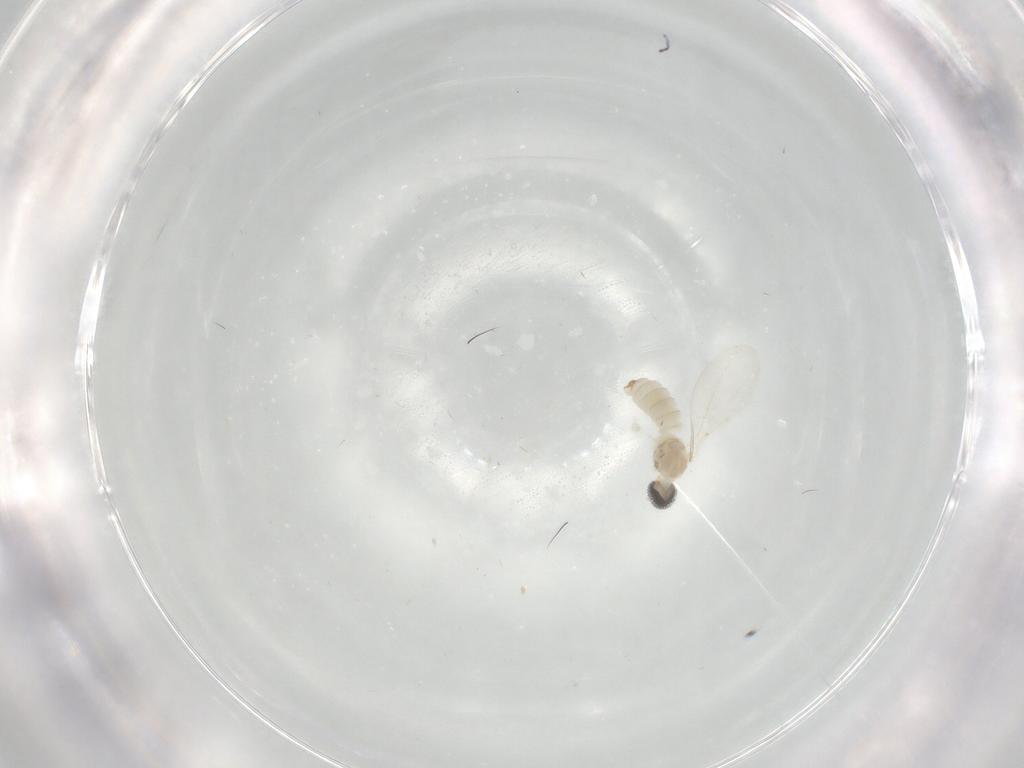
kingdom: Animalia
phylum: Arthropoda
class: Insecta
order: Diptera
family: Cecidomyiidae
